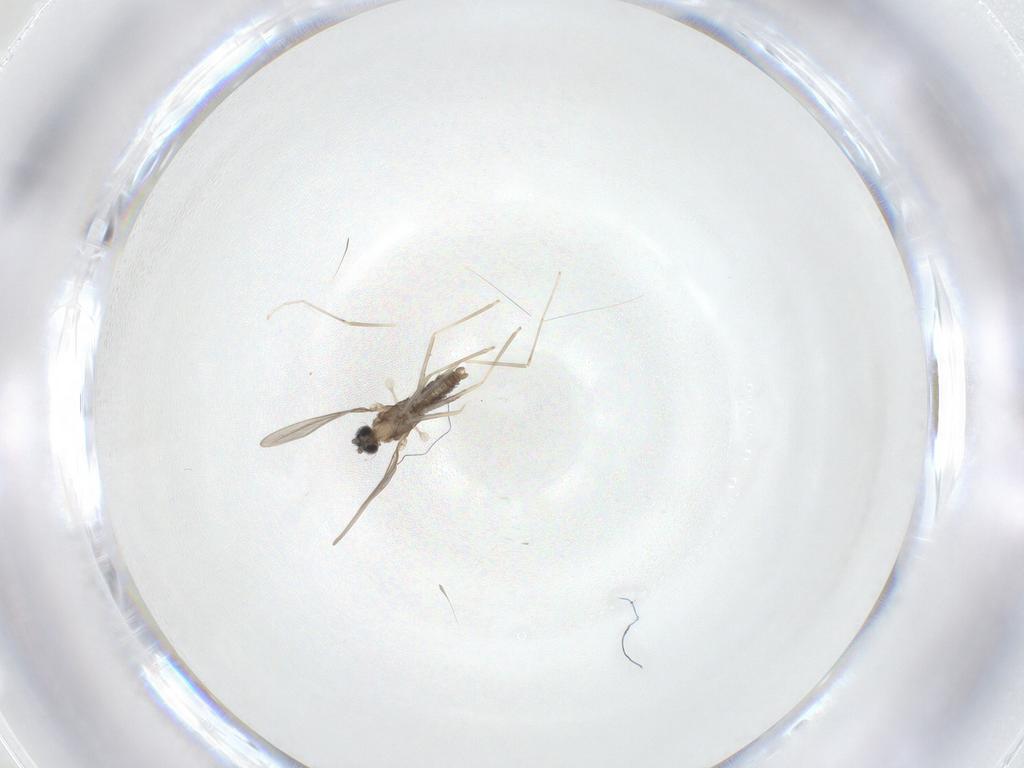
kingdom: Animalia
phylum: Arthropoda
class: Insecta
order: Diptera
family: Cecidomyiidae
